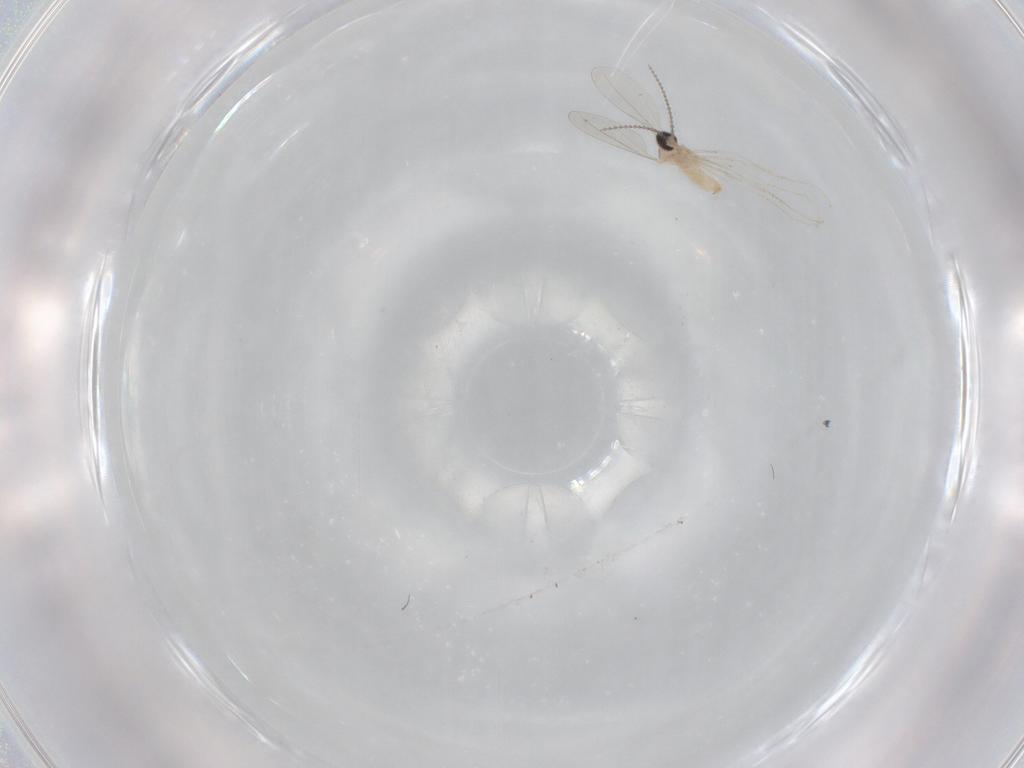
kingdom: Animalia
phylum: Arthropoda
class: Insecta
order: Diptera
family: Cecidomyiidae
